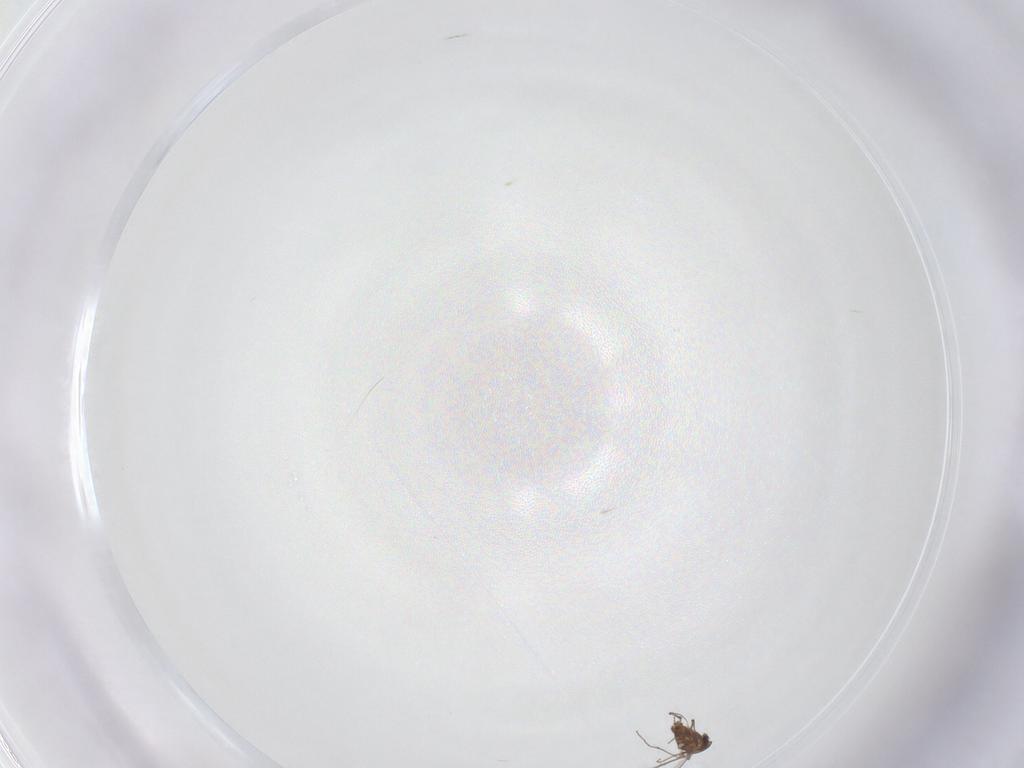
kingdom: Animalia
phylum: Arthropoda
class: Insecta
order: Diptera
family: Chironomidae
